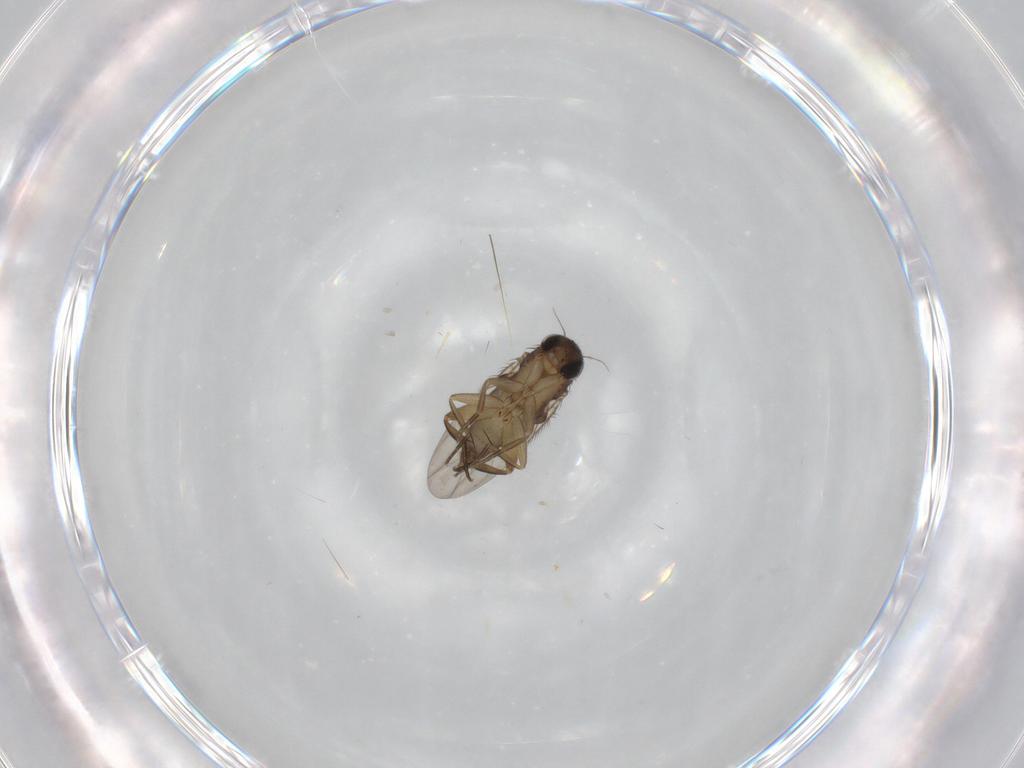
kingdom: Animalia
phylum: Arthropoda
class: Insecta
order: Diptera
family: Phoridae
